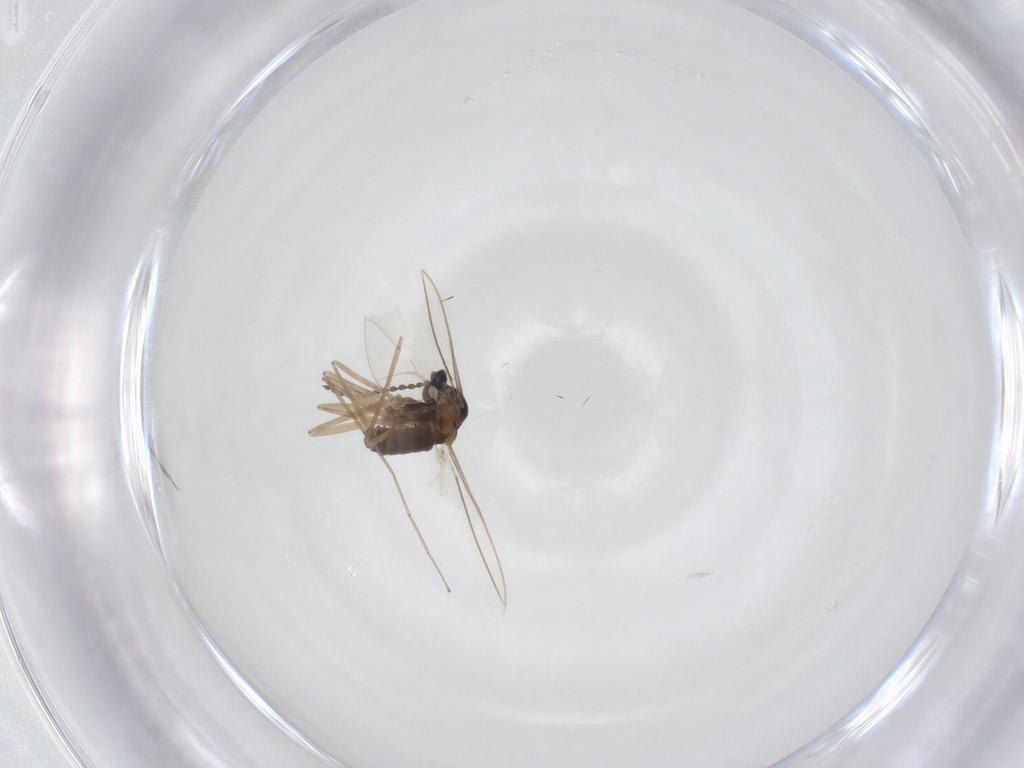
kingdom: Animalia
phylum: Arthropoda
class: Insecta
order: Diptera
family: Cecidomyiidae
